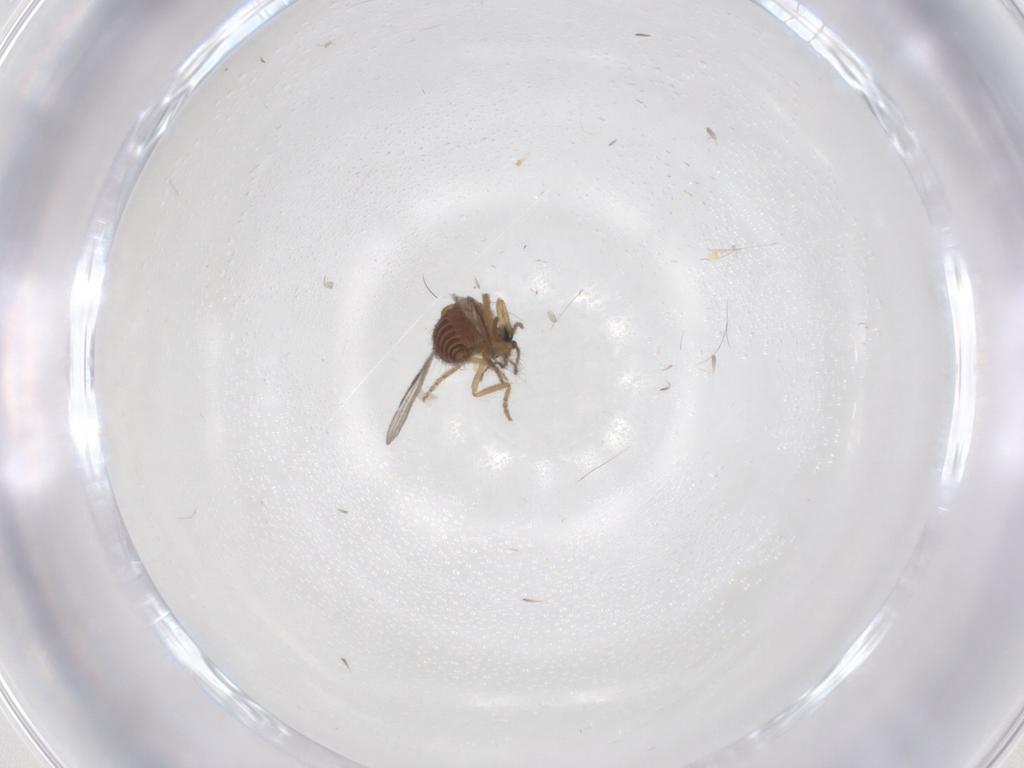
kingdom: Animalia
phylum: Arthropoda
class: Insecta
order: Diptera
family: Ceratopogonidae
